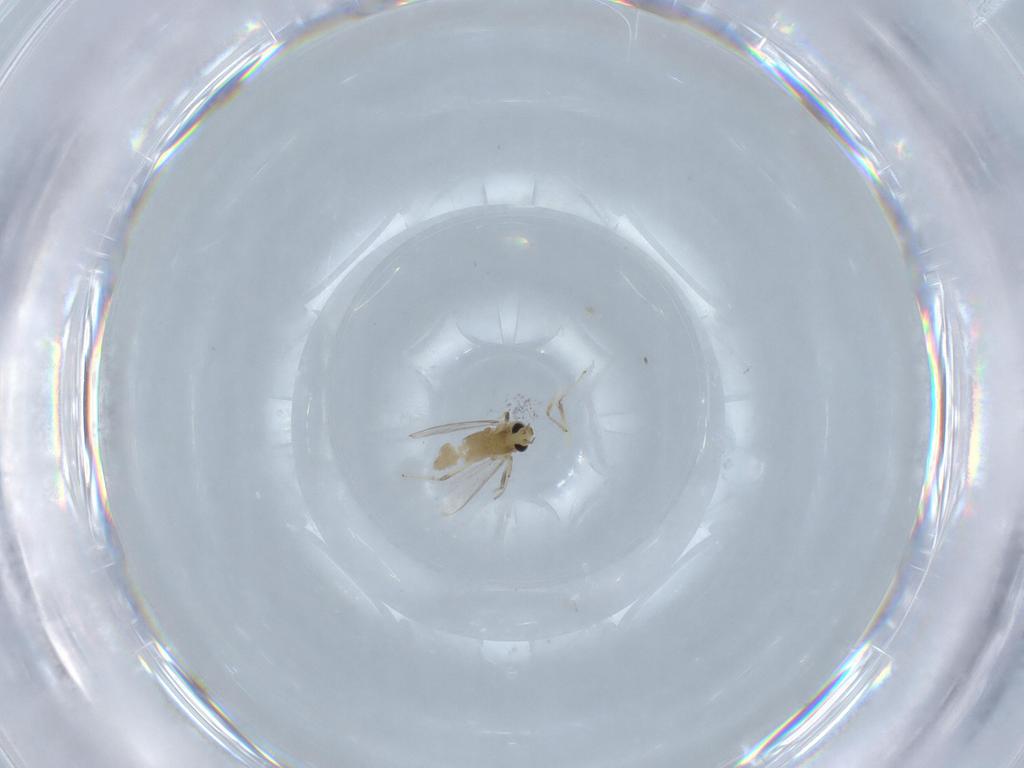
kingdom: Animalia
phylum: Arthropoda
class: Insecta
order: Diptera
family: Chironomidae
